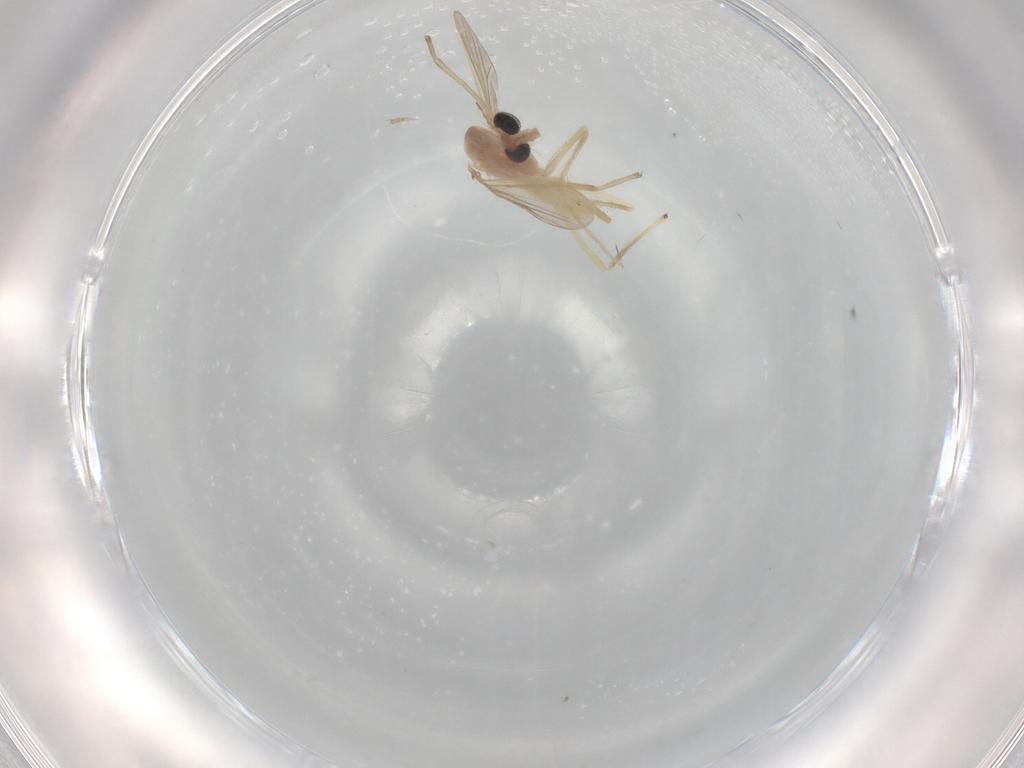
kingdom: Animalia
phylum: Arthropoda
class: Insecta
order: Diptera
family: Chironomidae
